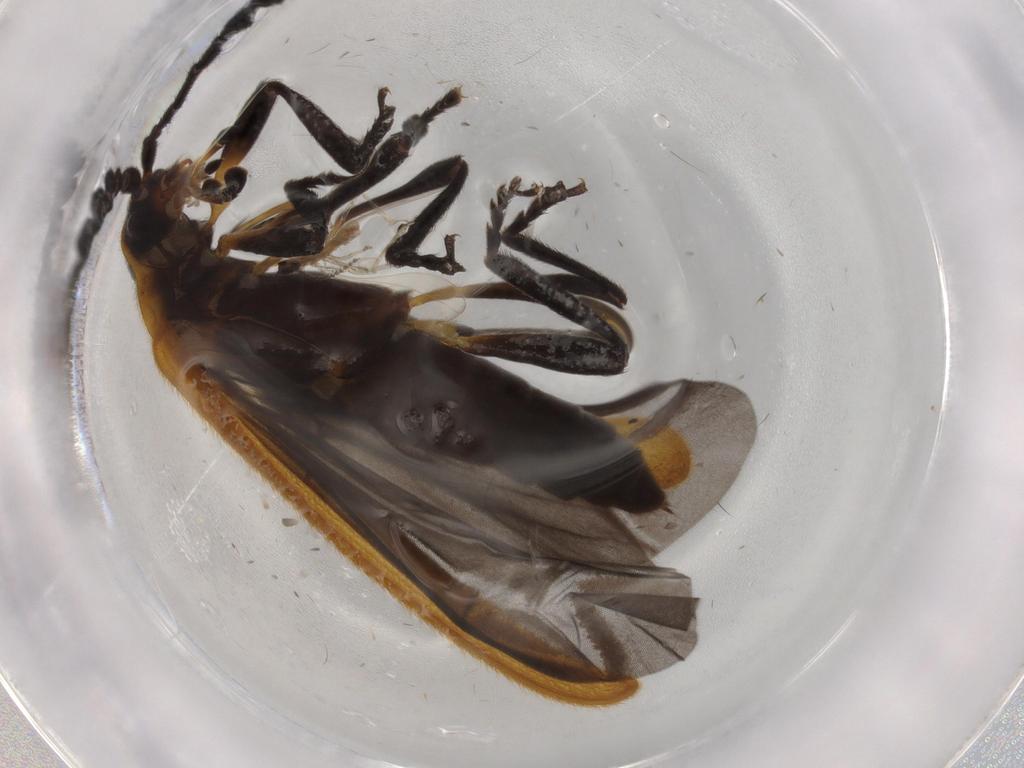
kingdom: Animalia
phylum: Arthropoda
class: Insecta
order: Coleoptera
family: Lycidae
